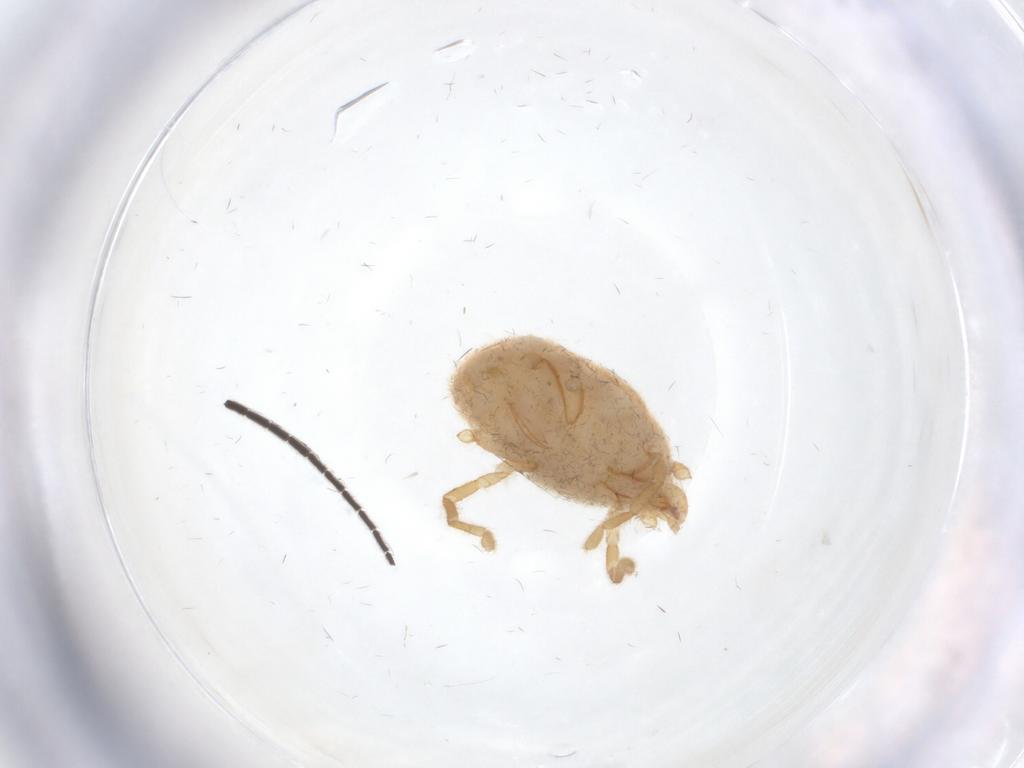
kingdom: Animalia
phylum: Arthropoda
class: Arachnida
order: Trombidiformes
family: Erythraeidae
